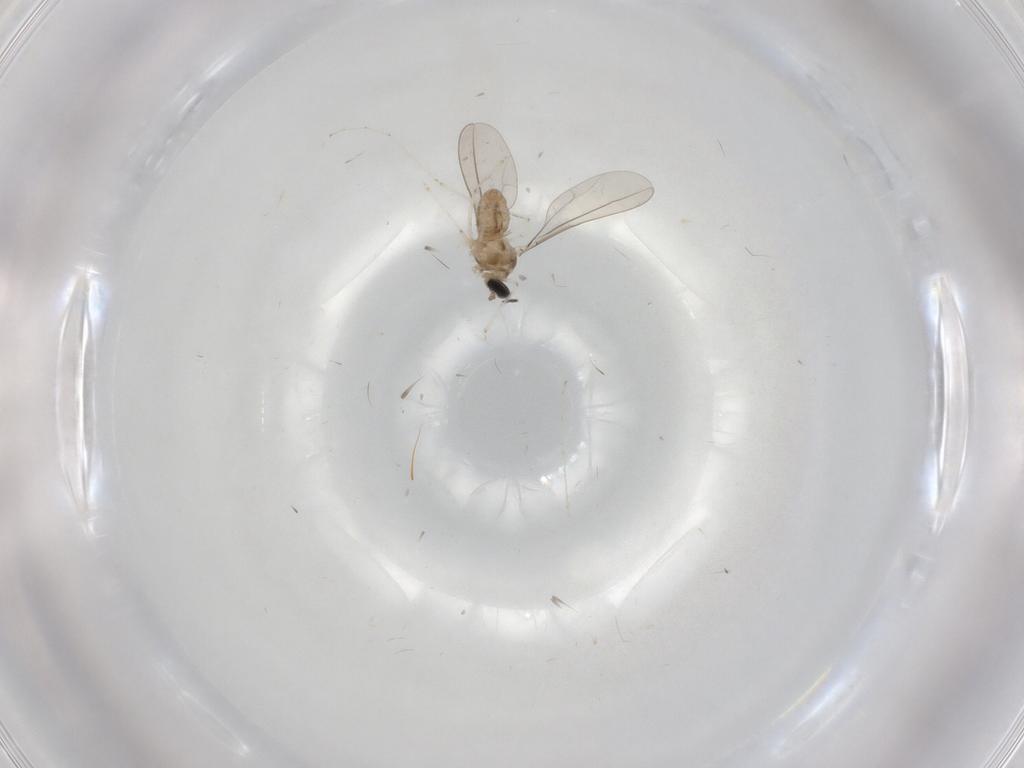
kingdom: Animalia
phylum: Arthropoda
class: Insecta
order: Diptera
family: Cecidomyiidae
